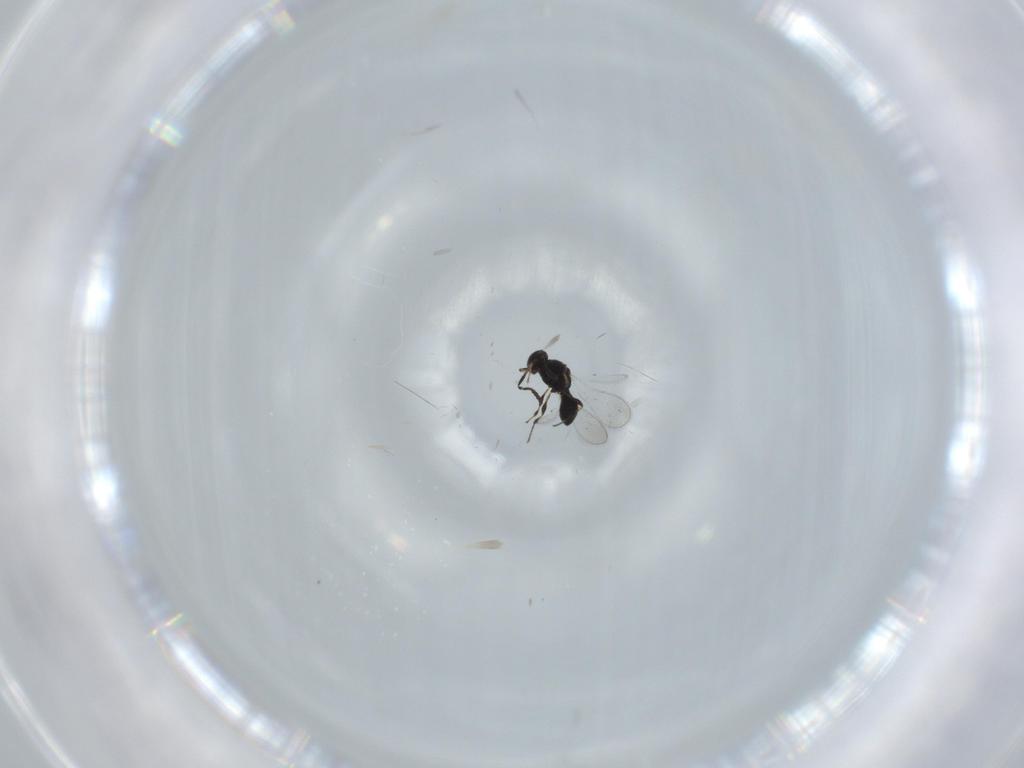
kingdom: Animalia
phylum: Arthropoda
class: Insecta
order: Hymenoptera
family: Platygastridae
